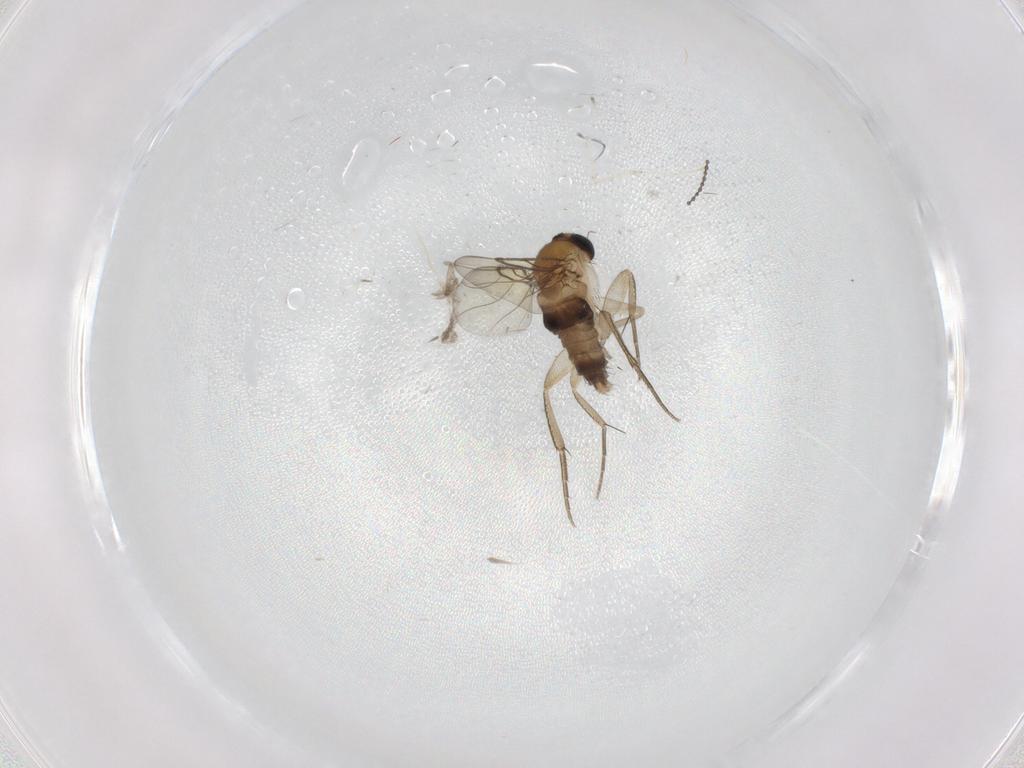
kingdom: Animalia
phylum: Arthropoda
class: Insecta
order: Diptera
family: Phoridae
